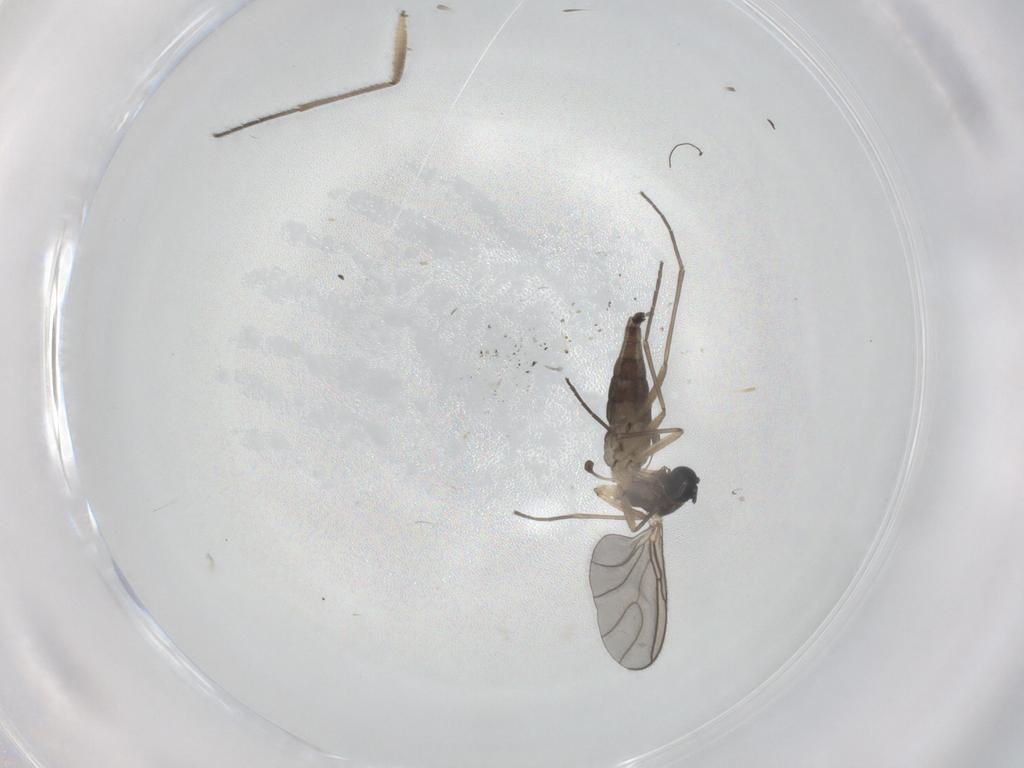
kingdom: Animalia
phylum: Arthropoda
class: Insecta
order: Diptera
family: Sciaridae
